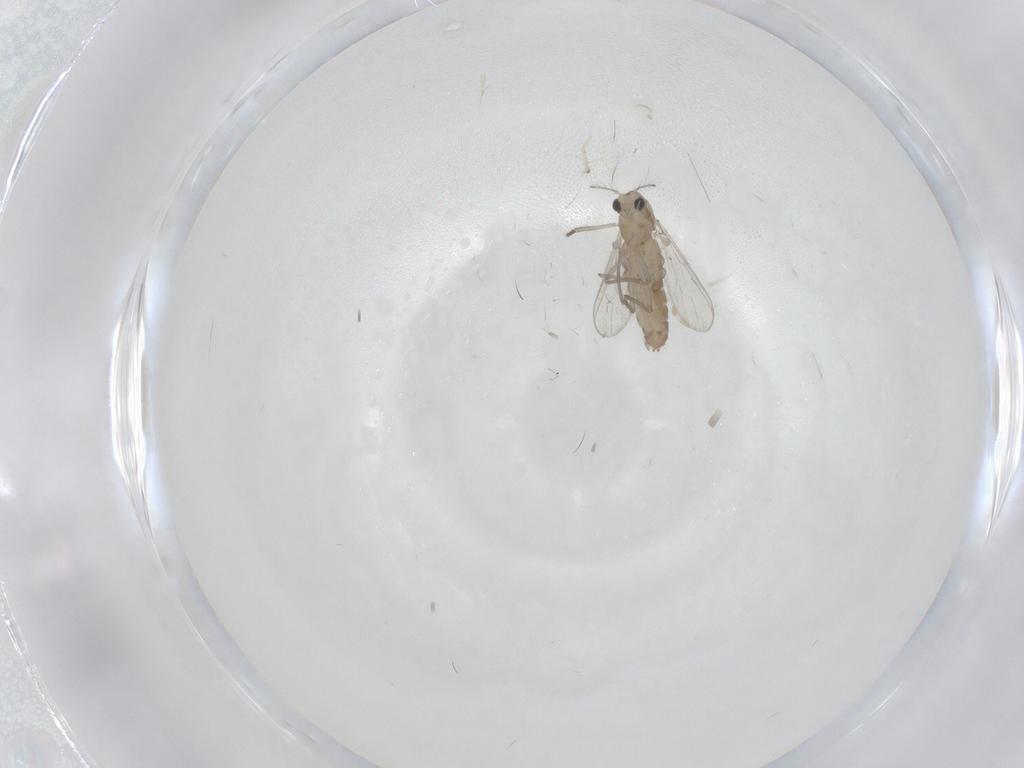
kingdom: Animalia
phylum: Arthropoda
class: Insecta
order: Diptera
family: Chironomidae
